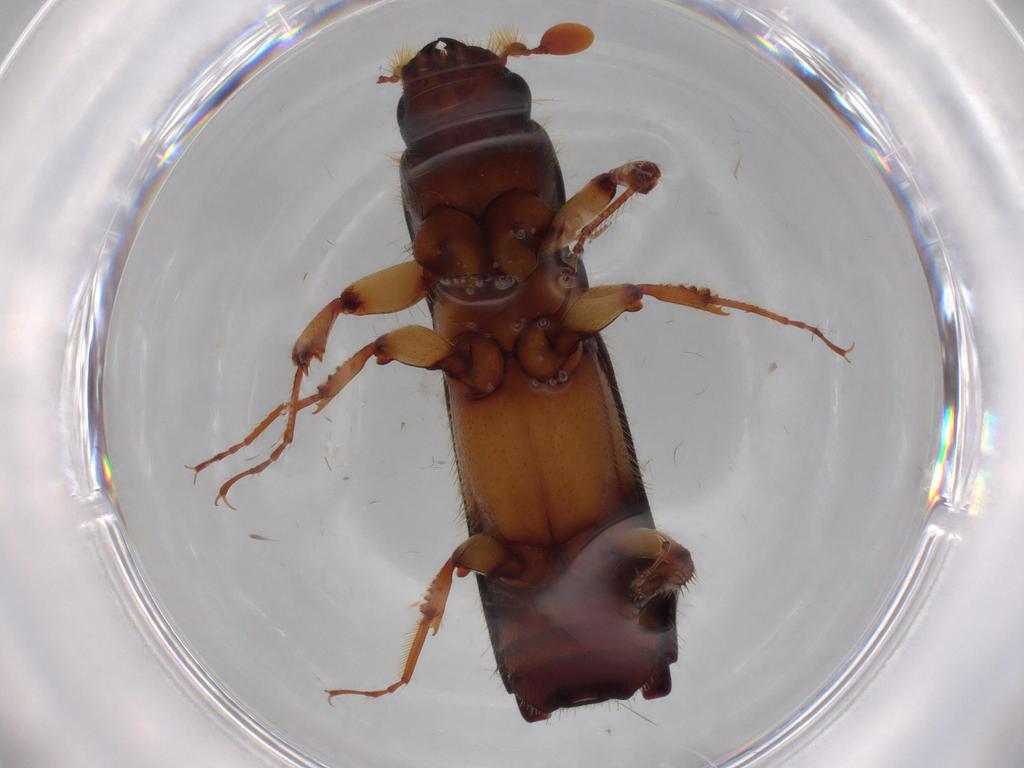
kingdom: Animalia
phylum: Arthropoda
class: Insecta
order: Coleoptera
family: Curculionidae
